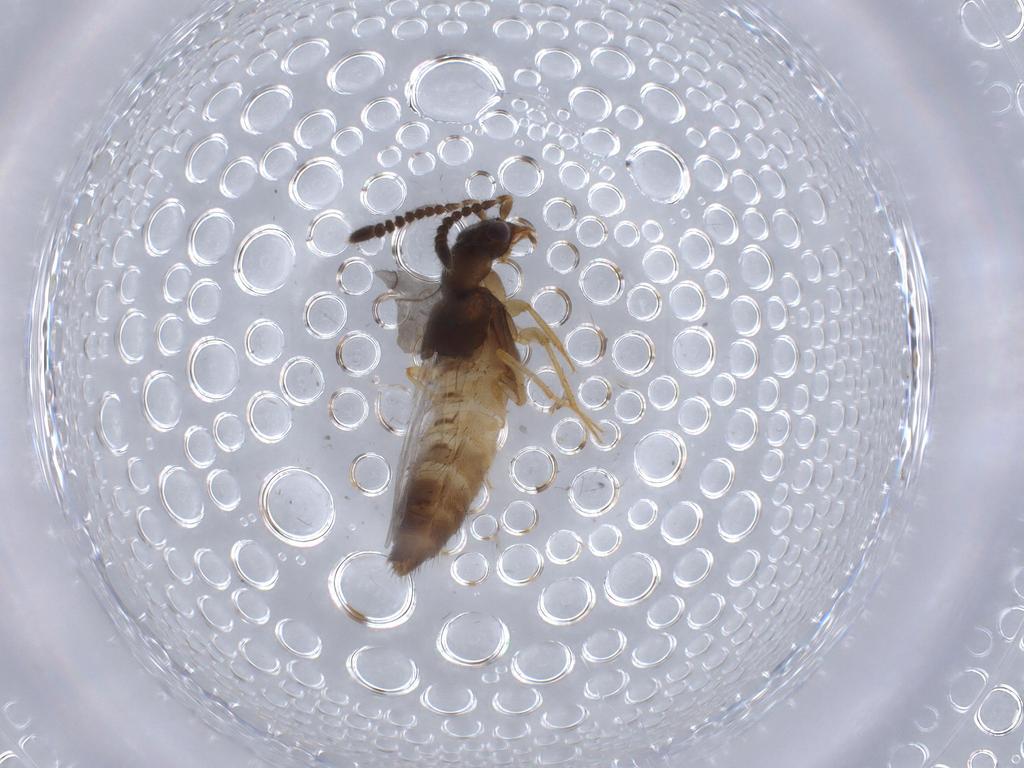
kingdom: Animalia
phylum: Arthropoda
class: Insecta
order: Coleoptera
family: Staphylinidae
